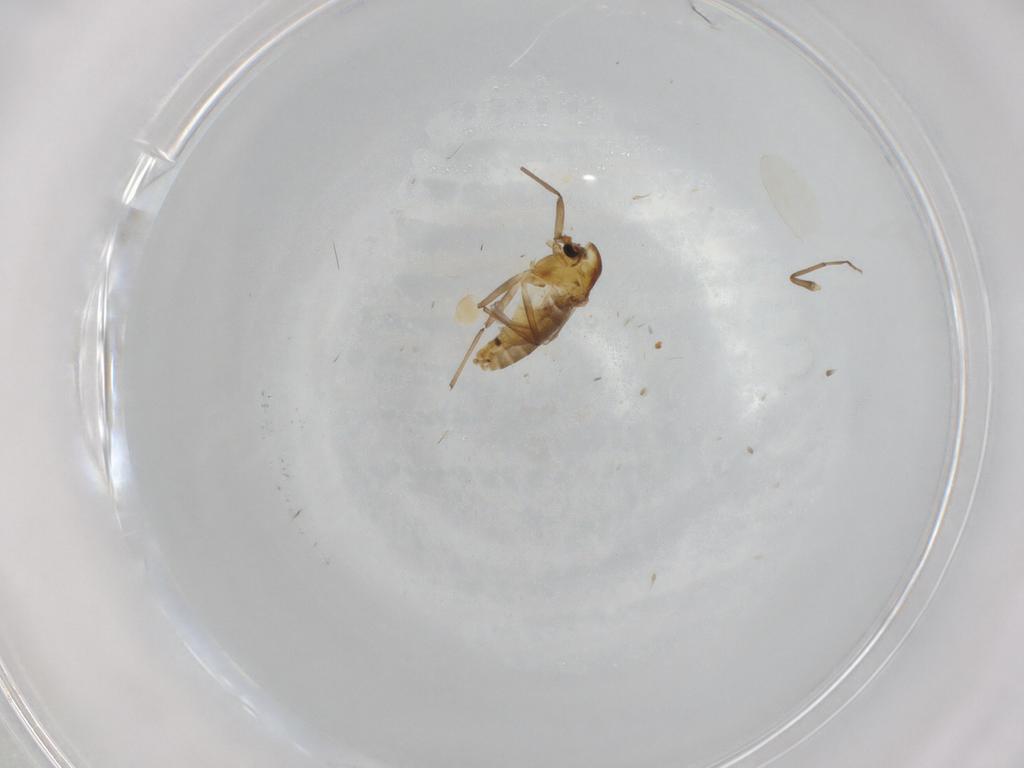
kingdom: Animalia
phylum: Arthropoda
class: Insecta
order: Diptera
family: Chironomidae
